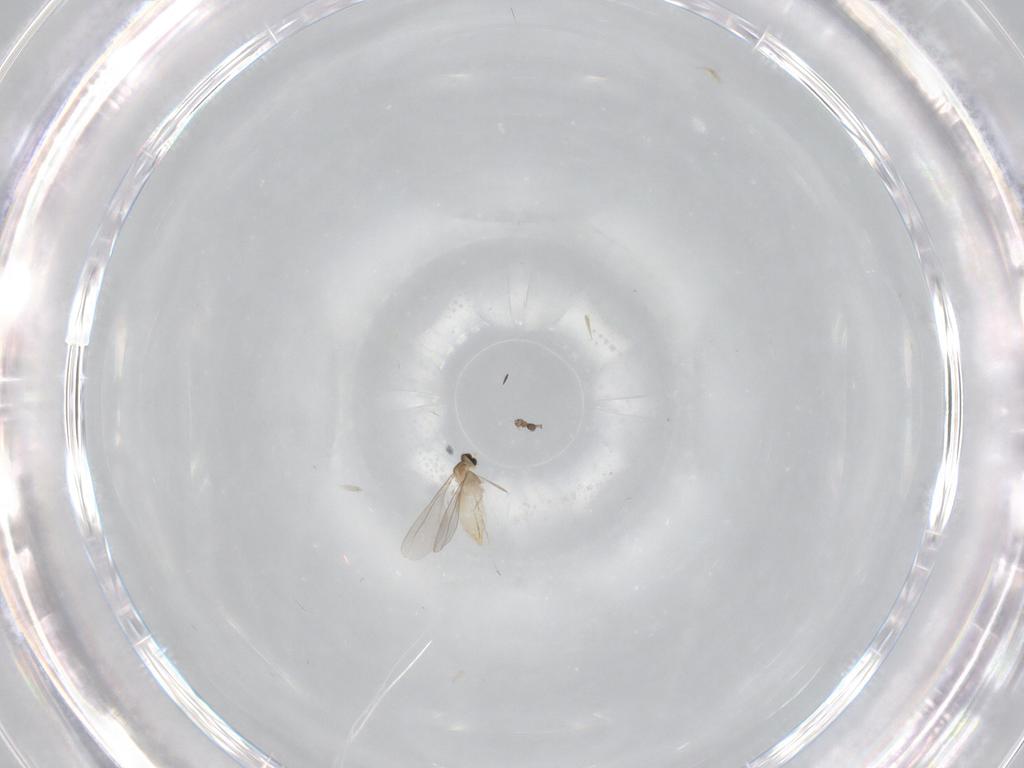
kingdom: Animalia
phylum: Arthropoda
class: Insecta
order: Diptera
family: Cecidomyiidae
